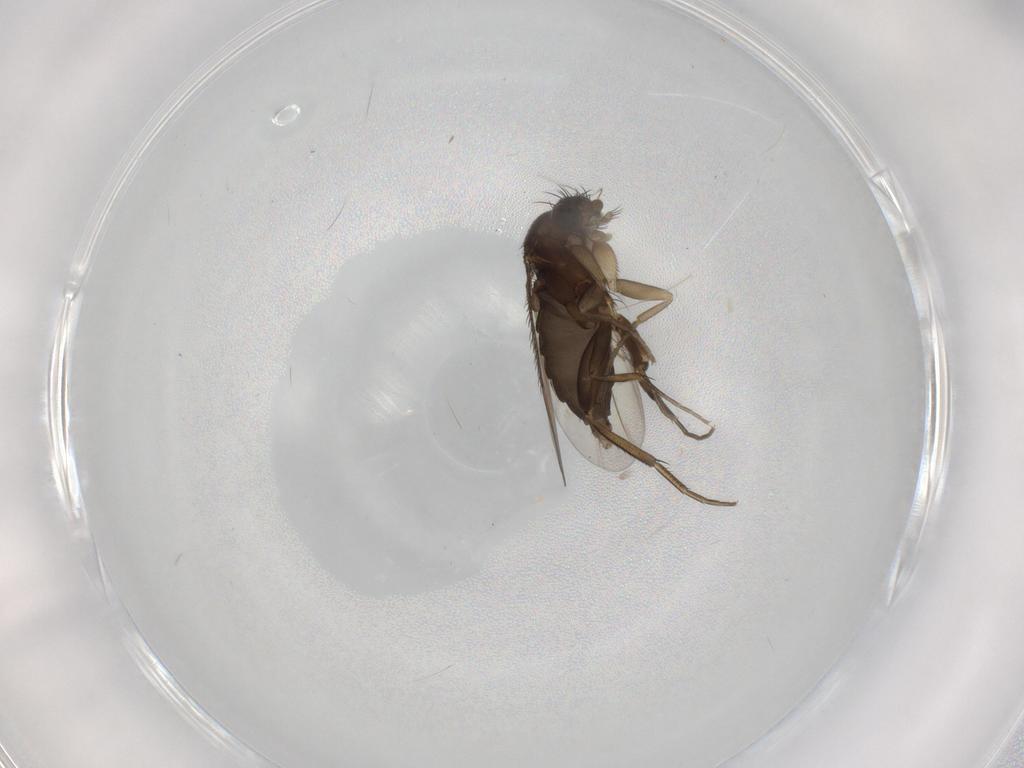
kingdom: Animalia
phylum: Arthropoda
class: Insecta
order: Diptera
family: Phoridae
